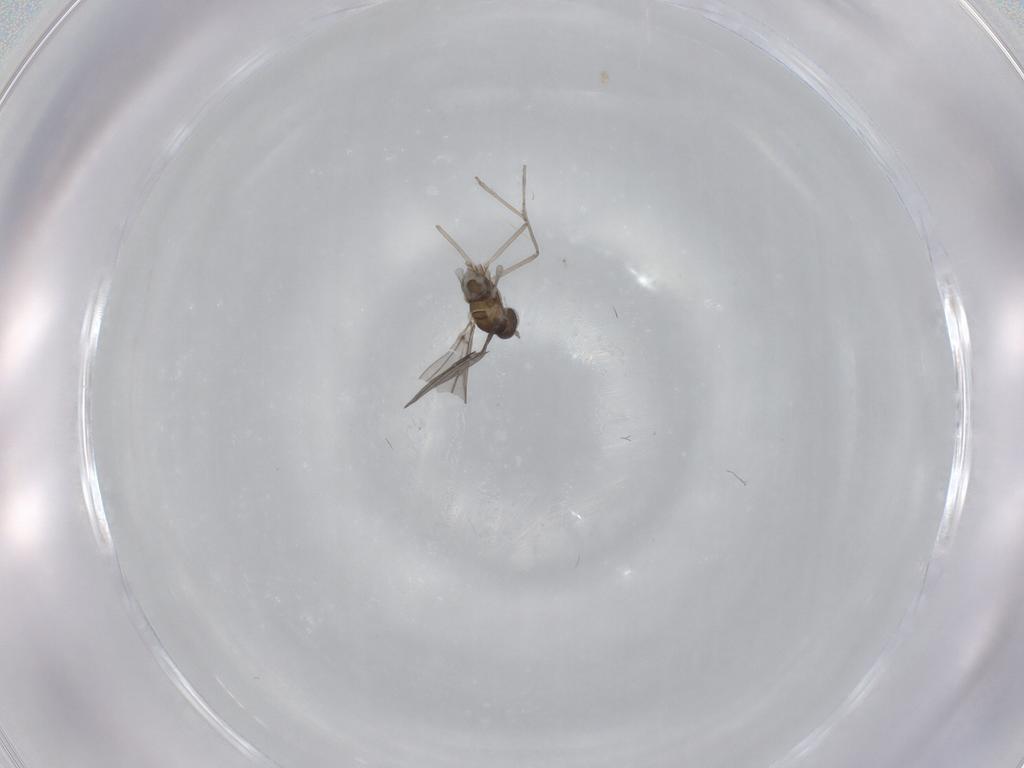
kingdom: Animalia
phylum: Arthropoda
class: Insecta
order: Diptera
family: Cecidomyiidae
